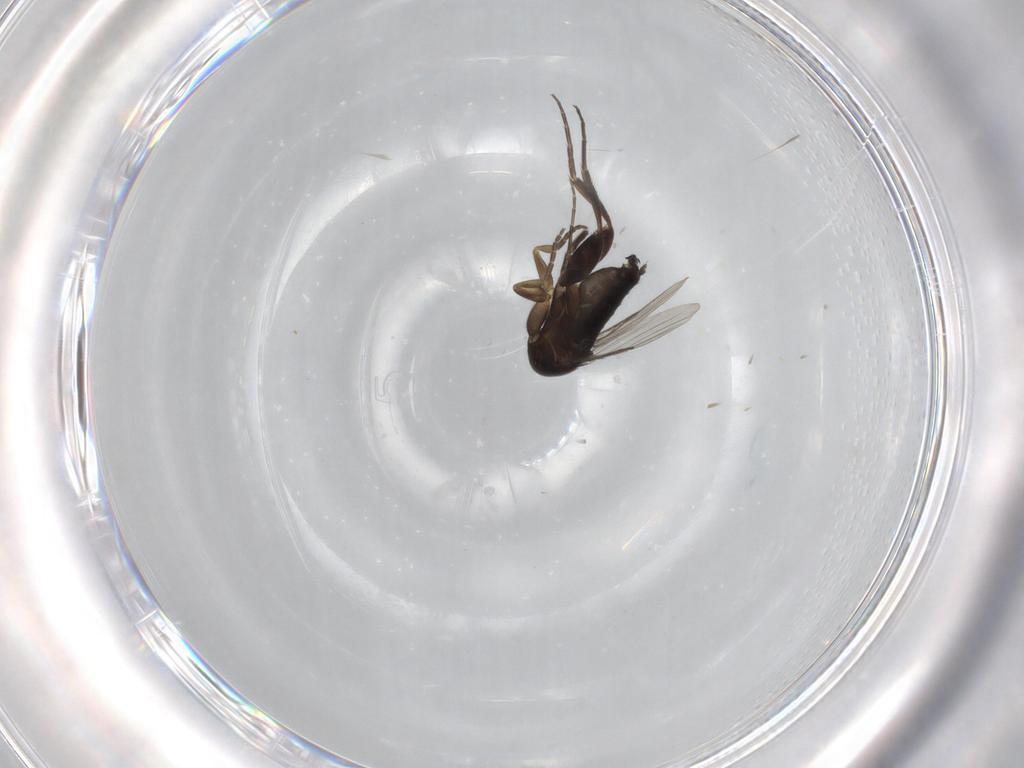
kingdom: Animalia
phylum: Arthropoda
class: Insecta
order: Diptera
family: Phoridae
